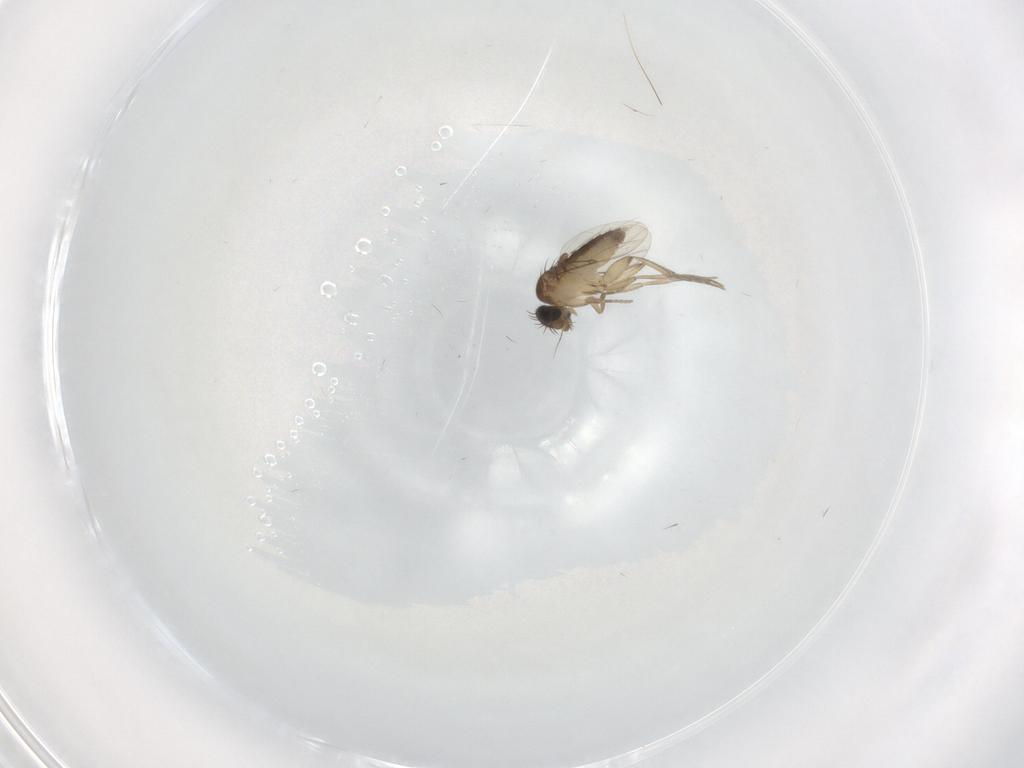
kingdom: Animalia
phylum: Arthropoda
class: Insecta
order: Diptera
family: Phoridae
